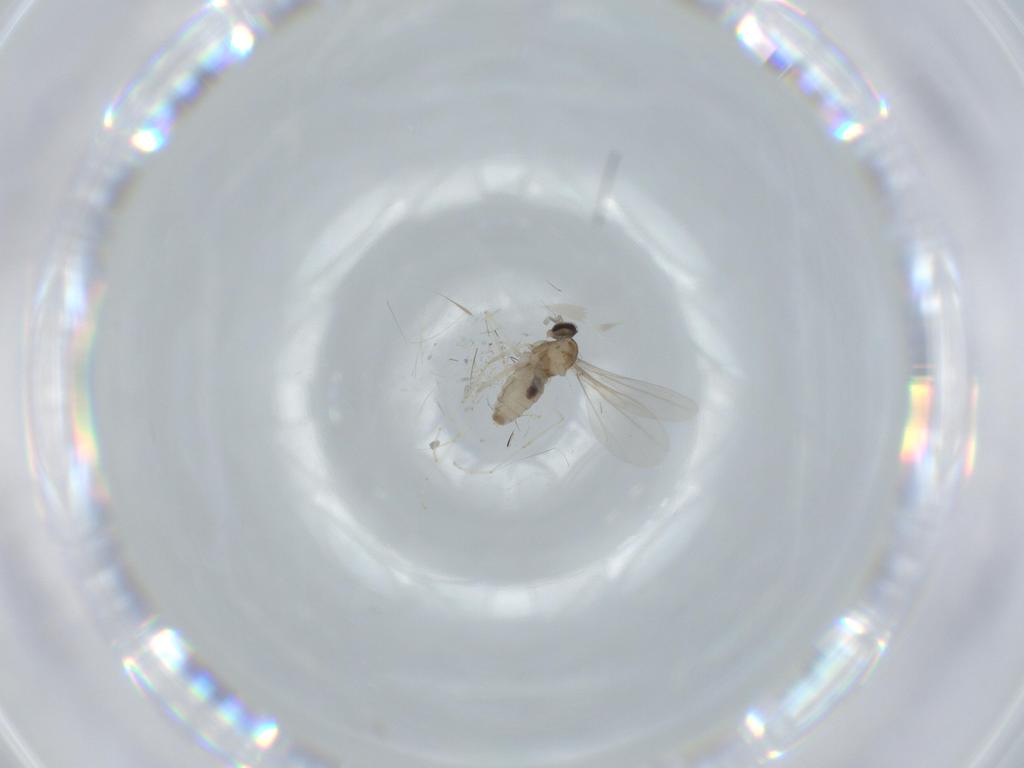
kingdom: Animalia
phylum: Arthropoda
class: Insecta
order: Diptera
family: Cecidomyiidae
